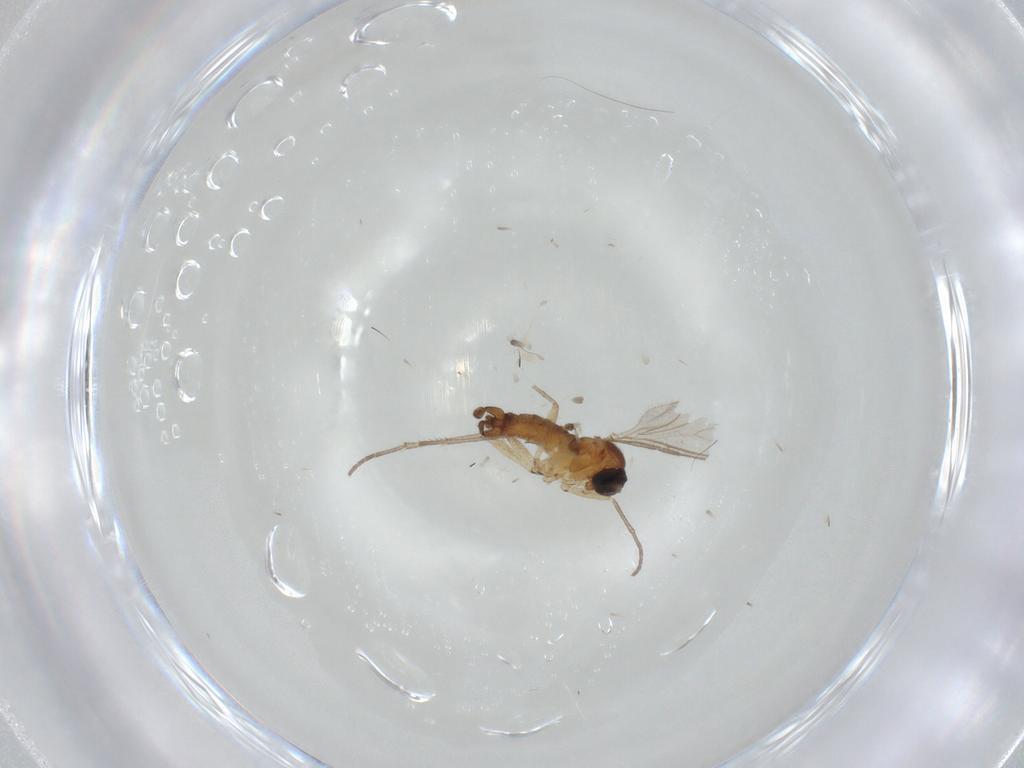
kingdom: Animalia
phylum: Arthropoda
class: Insecta
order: Diptera
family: Sciaridae
